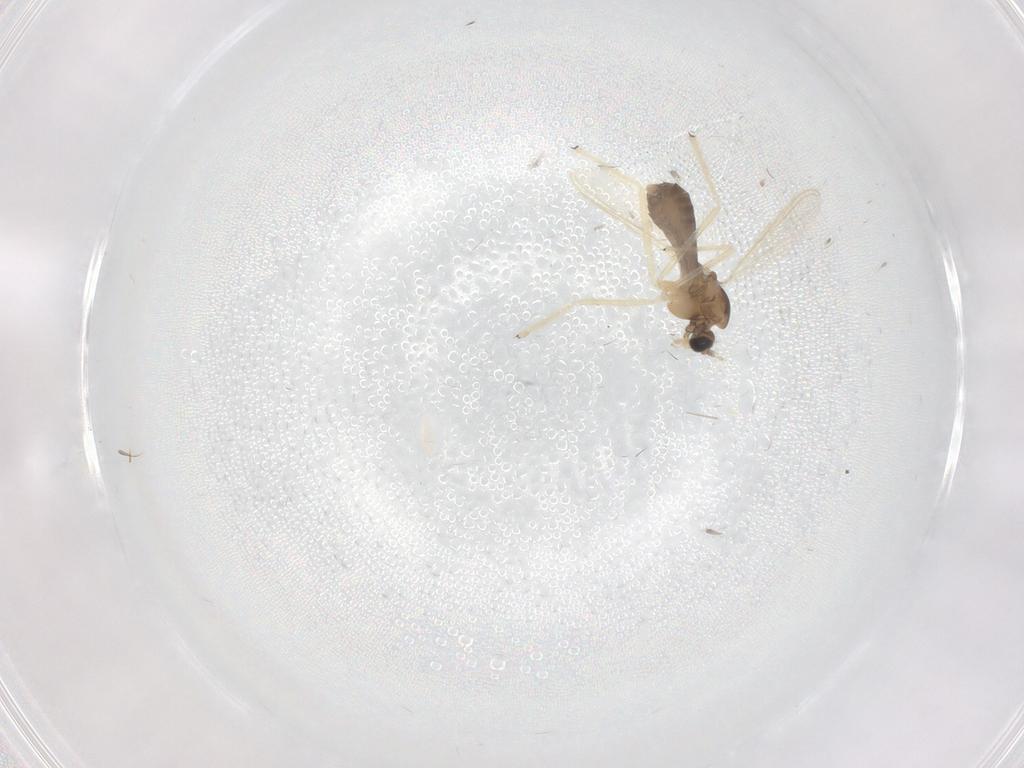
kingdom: Animalia
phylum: Arthropoda
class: Insecta
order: Diptera
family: Chironomidae
